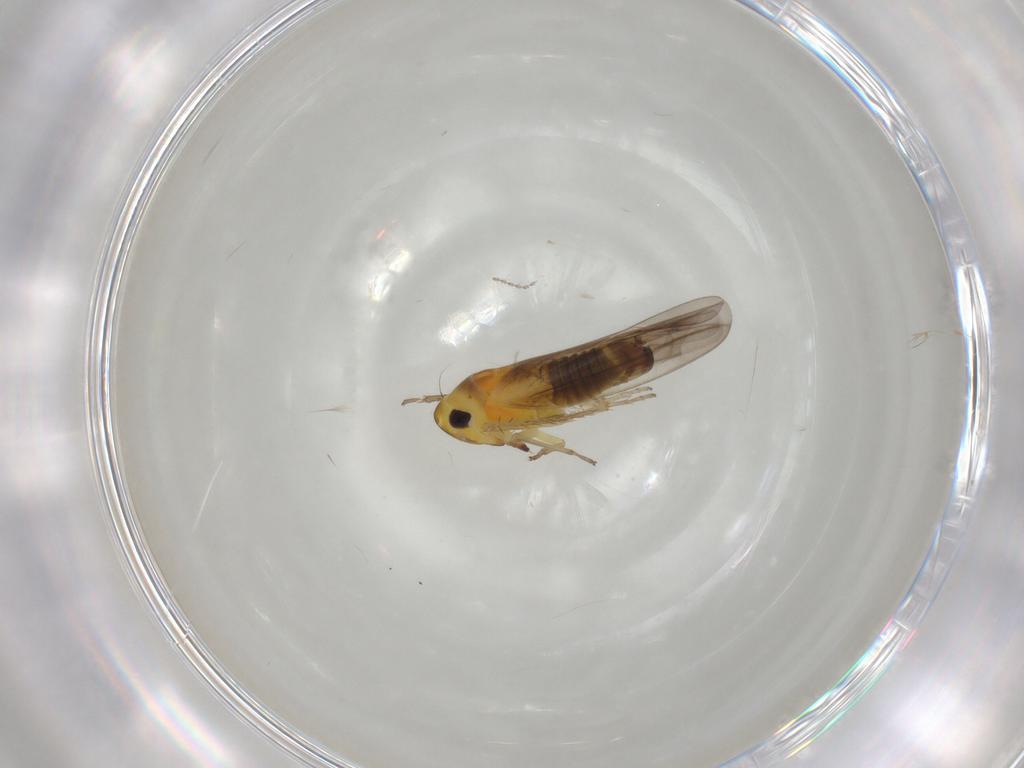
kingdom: Animalia
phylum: Arthropoda
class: Insecta
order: Hemiptera
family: Cicadellidae
